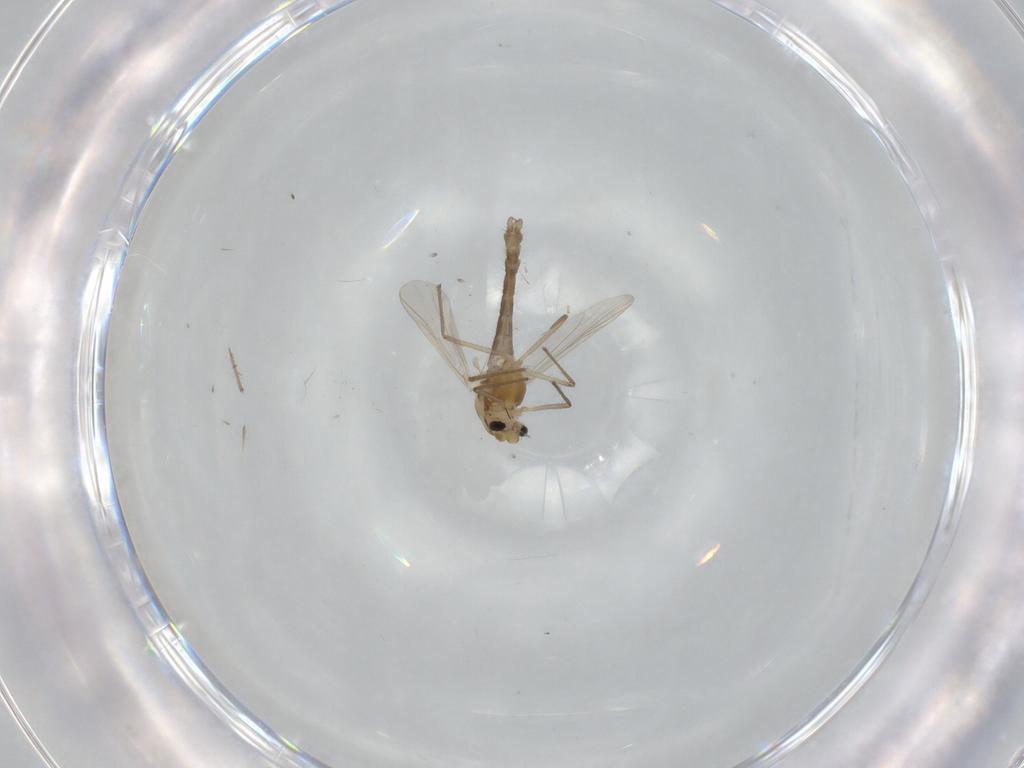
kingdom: Animalia
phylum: Arthropoda
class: Insecta
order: Diptera
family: Chironomidae
